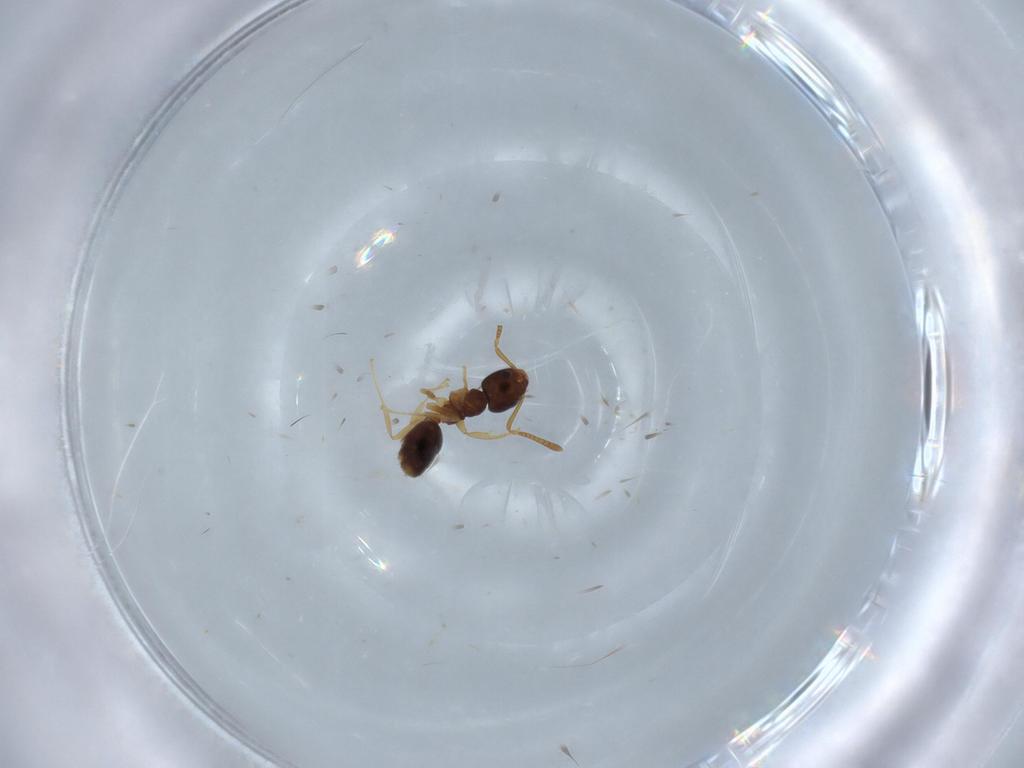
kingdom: Animalia
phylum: Arthropoda
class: Insecta
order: Hymenoptera
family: Formicidae
